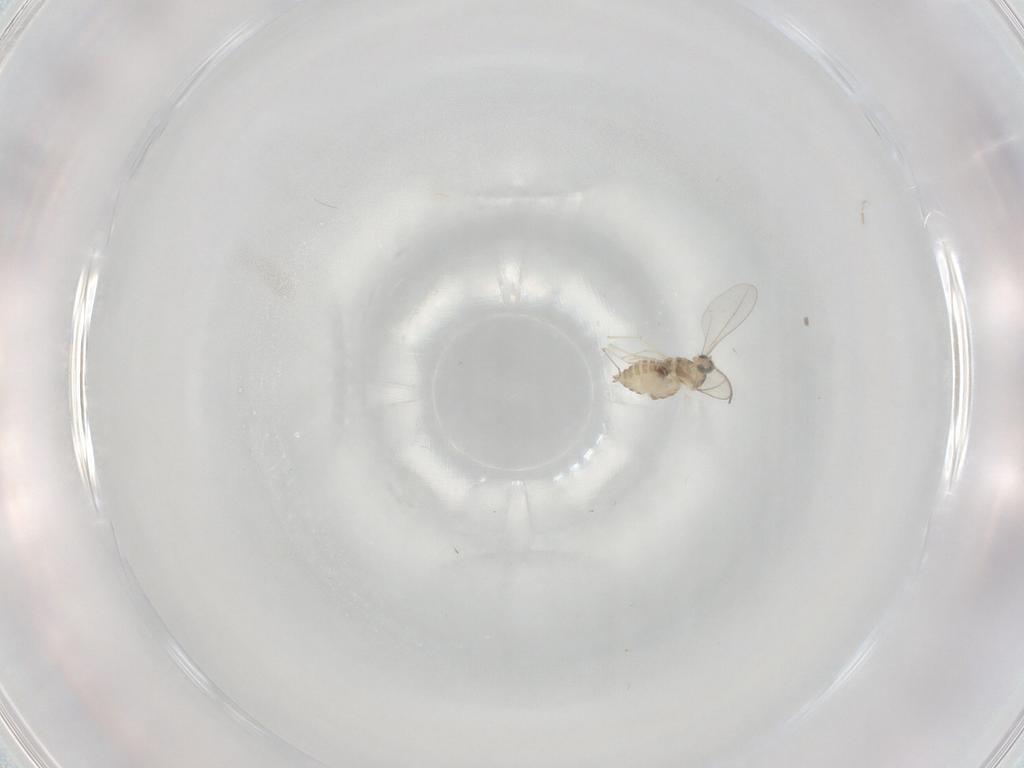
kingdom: Animalia
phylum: Arthropoda
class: Insecta
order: Diptera
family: Cecidomyiidae
